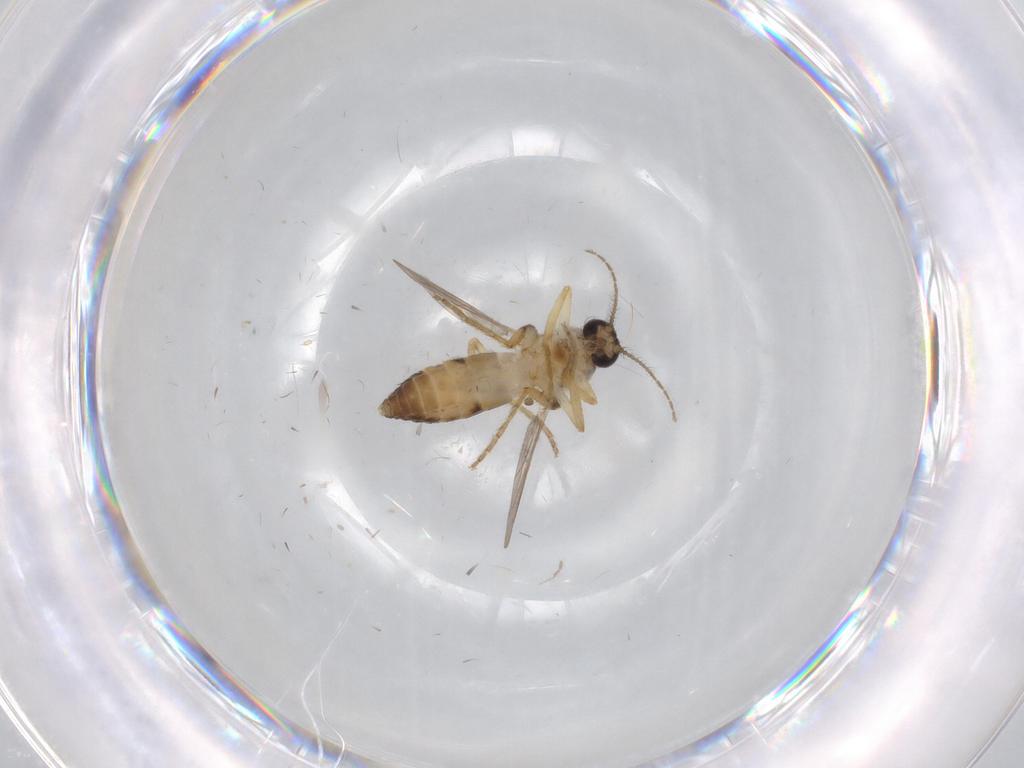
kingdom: Animalia
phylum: Arthropoda
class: Insecta
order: Diptera
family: Ceratopogonidae
